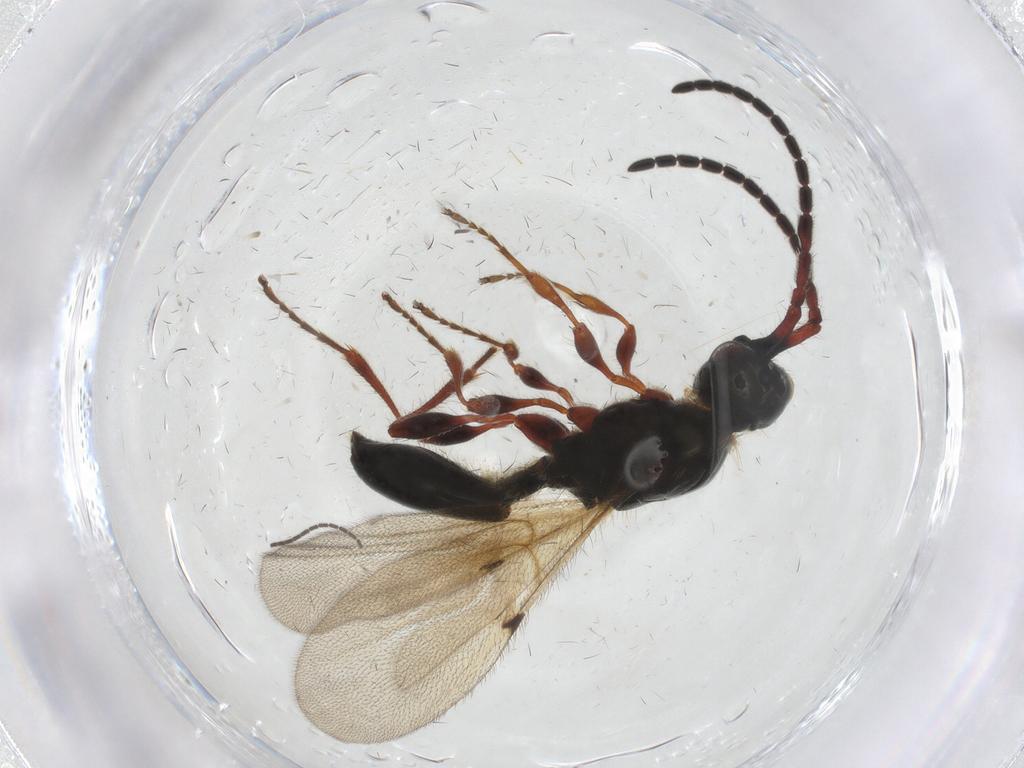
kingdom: Animalia
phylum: Arthropoda
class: Insecta
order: Hymenoptera
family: Diapriidae
